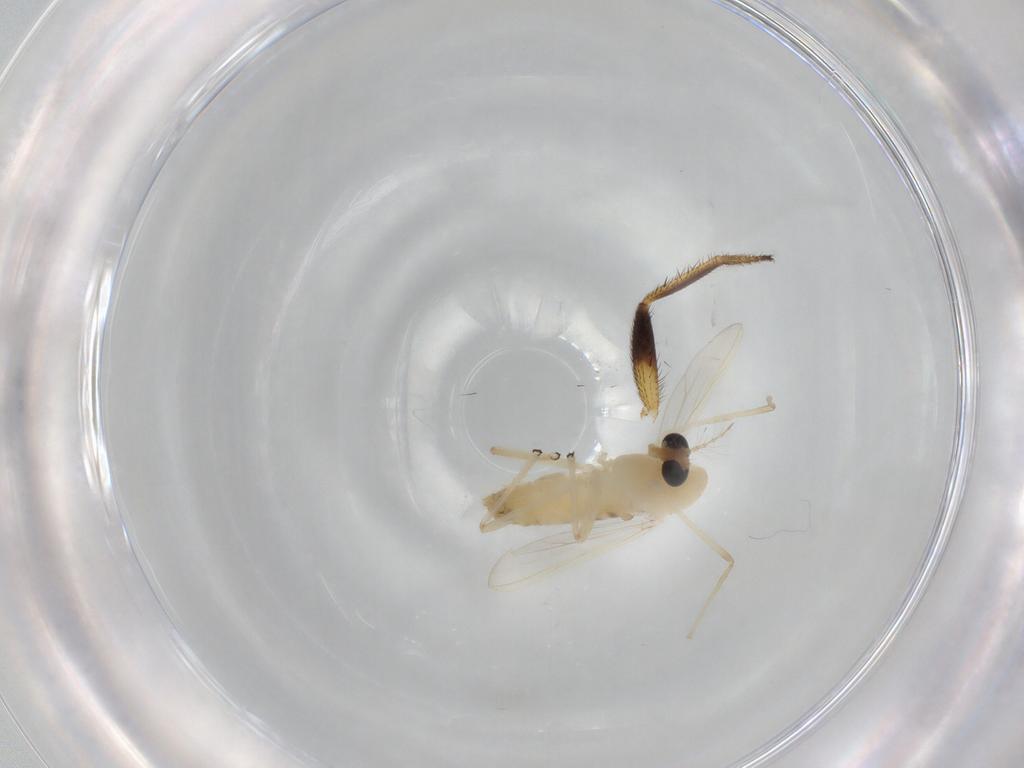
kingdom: Animalia
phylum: Arthropoda
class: Insecta
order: Diptera
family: Chironomidae
